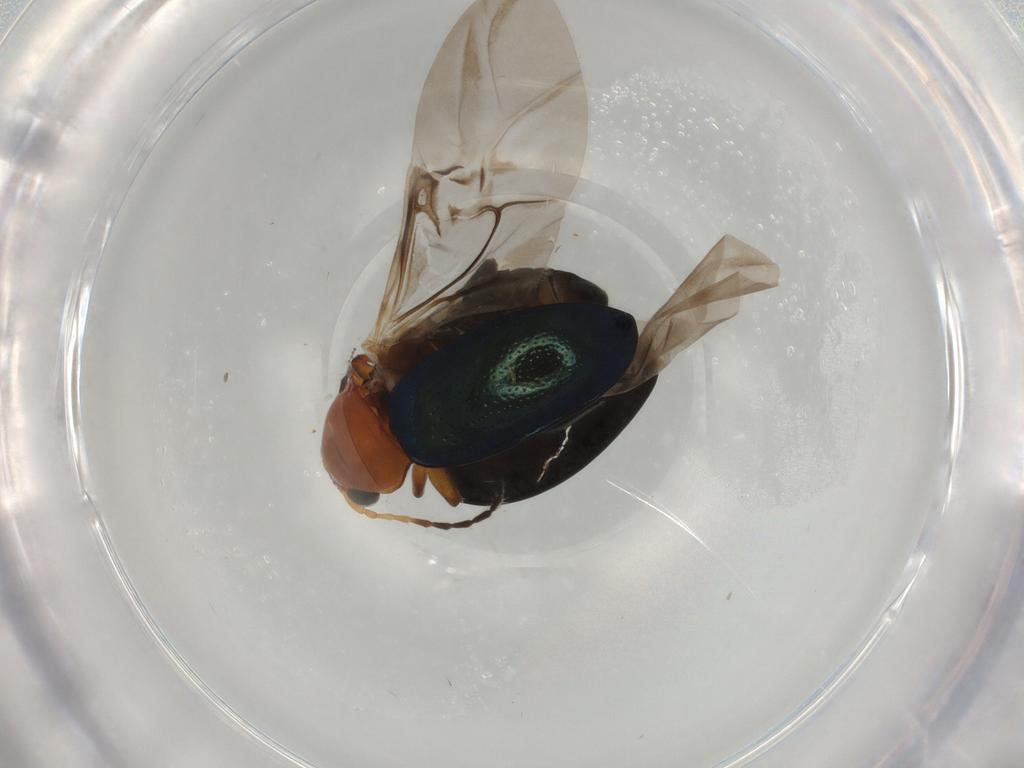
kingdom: Animalia
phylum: Arthropoda
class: Insecta
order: Coleoptera
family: Chrysomelidae
